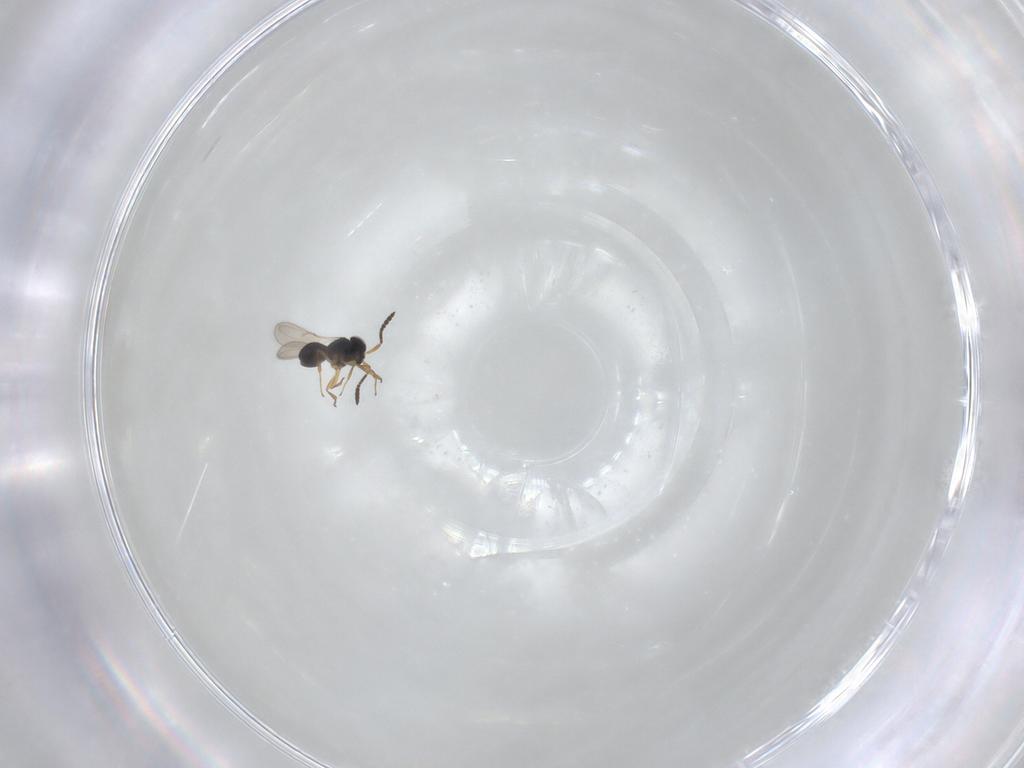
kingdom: Animalia
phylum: Arthropoda
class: Insecta
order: Hymenoptera
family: Scelionidae
